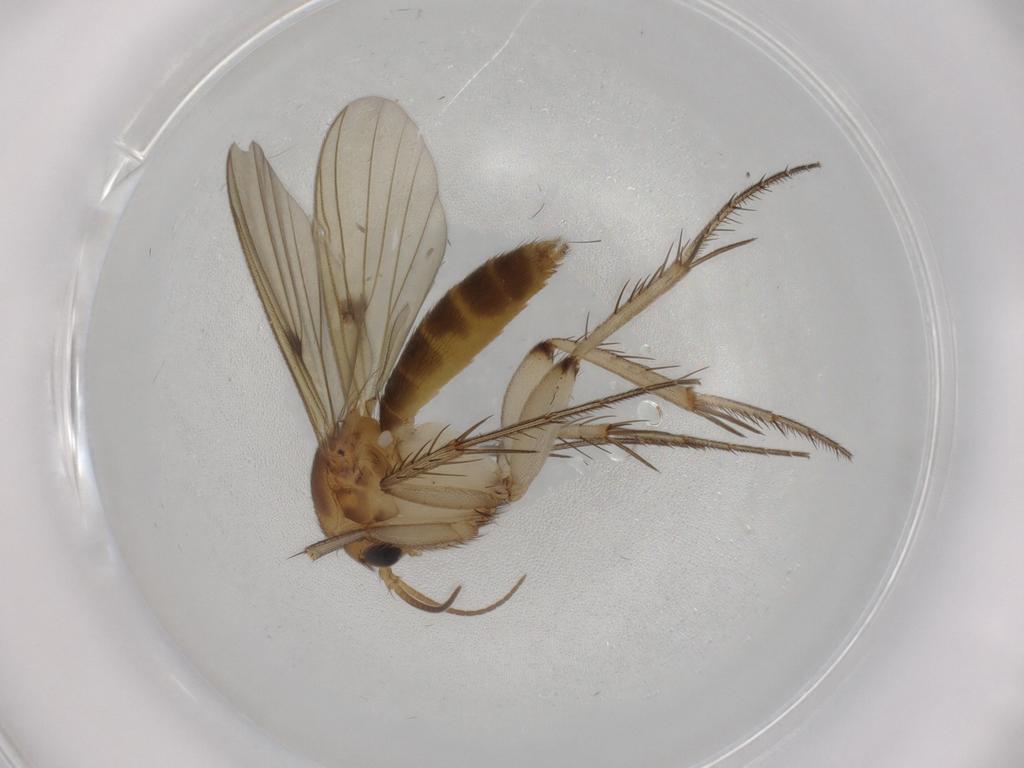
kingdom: Animalia
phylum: Arthropoda
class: Insecta
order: Diptera
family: Mycetophilidae
